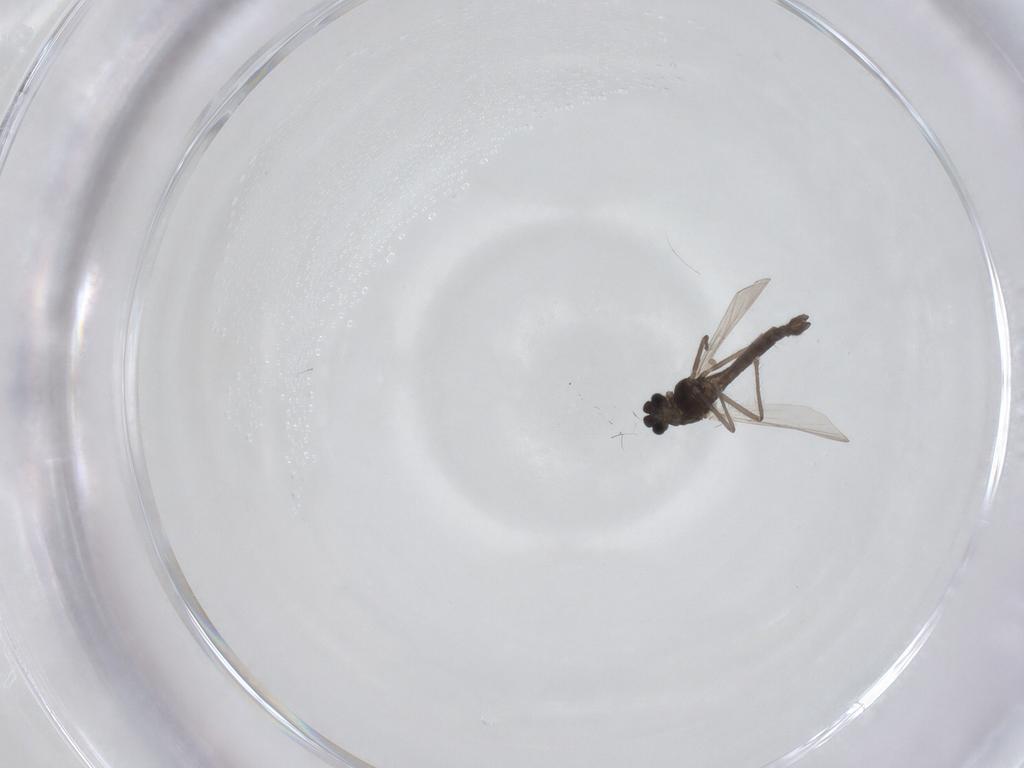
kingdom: Animalia
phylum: Arthropoda
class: Insecta
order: Diptera
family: Chironomidae
